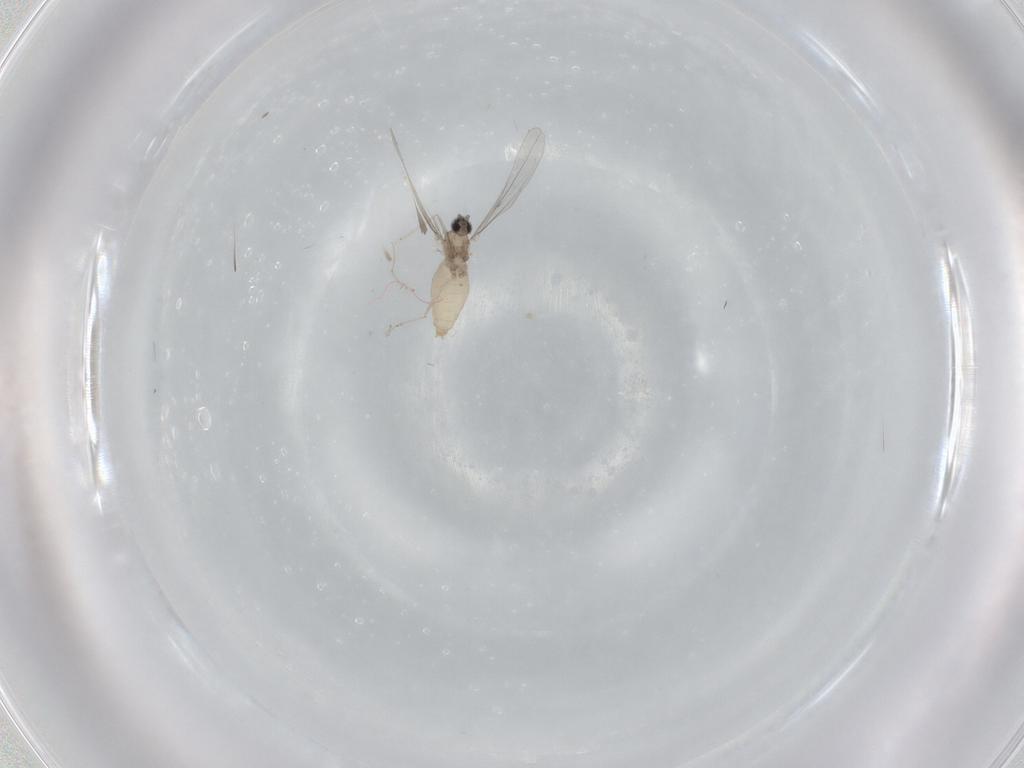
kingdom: Animalia
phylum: Arthropoda
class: Insecta
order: Diptera
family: Cecidomyiidae
